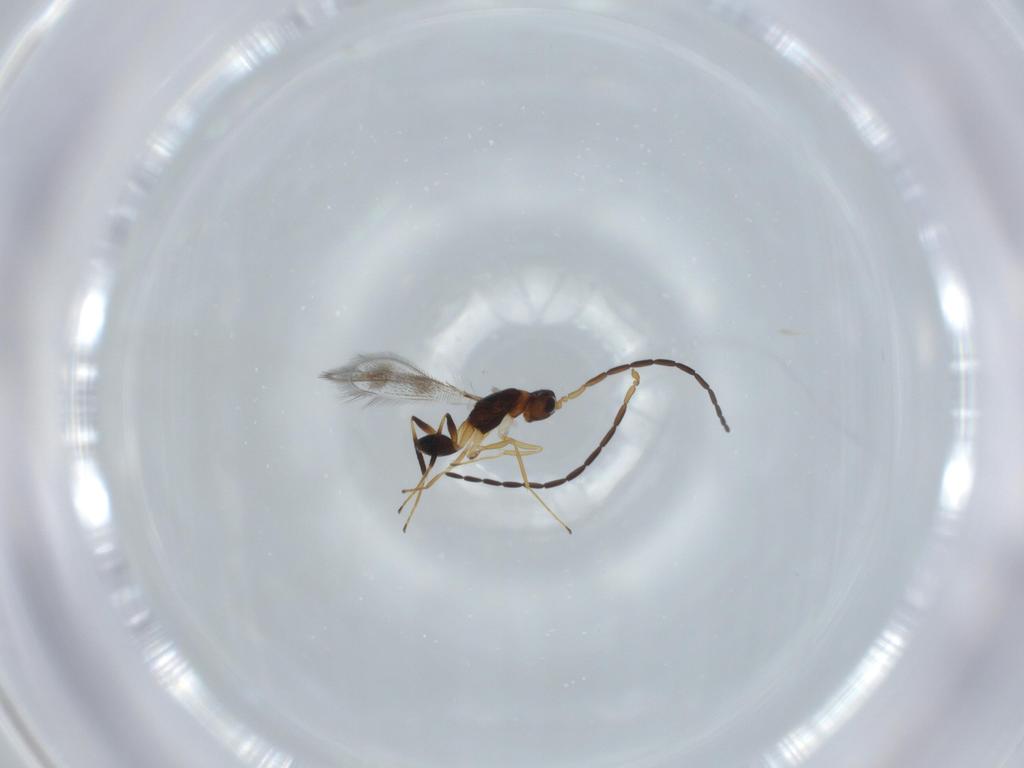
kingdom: Animalia
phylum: Arthropoda
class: Insecta
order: Hymenoptera
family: Mymaridae
